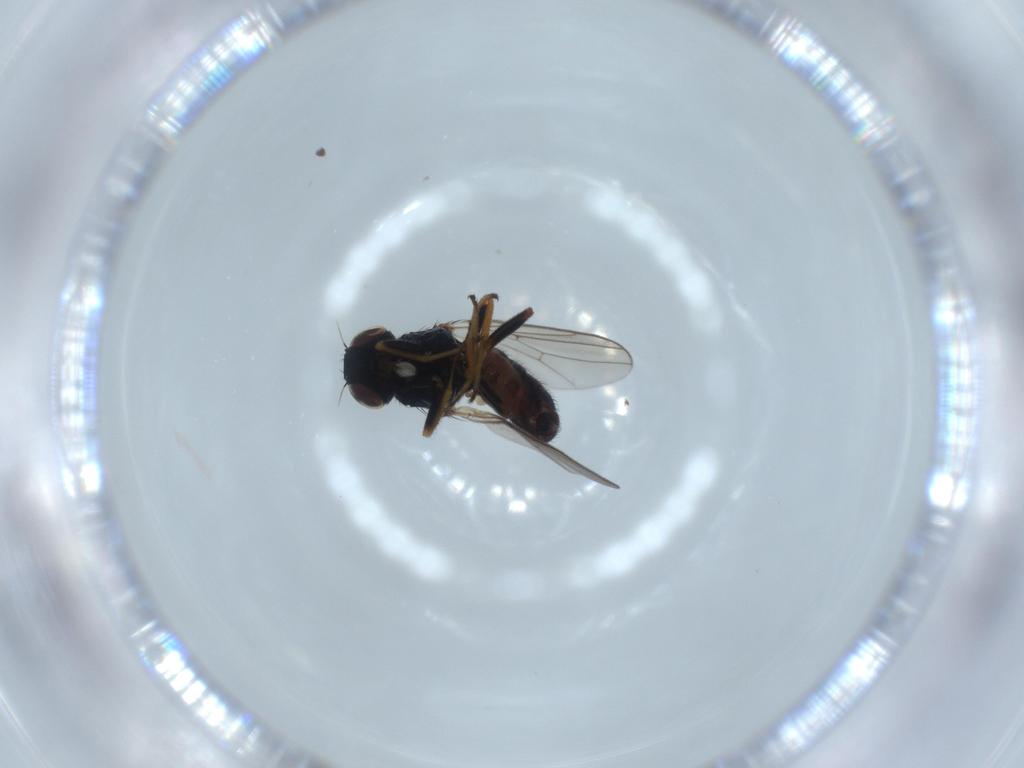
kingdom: Animalia
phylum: Arthropoda
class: Insecta
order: Diptera
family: Chloropidae
